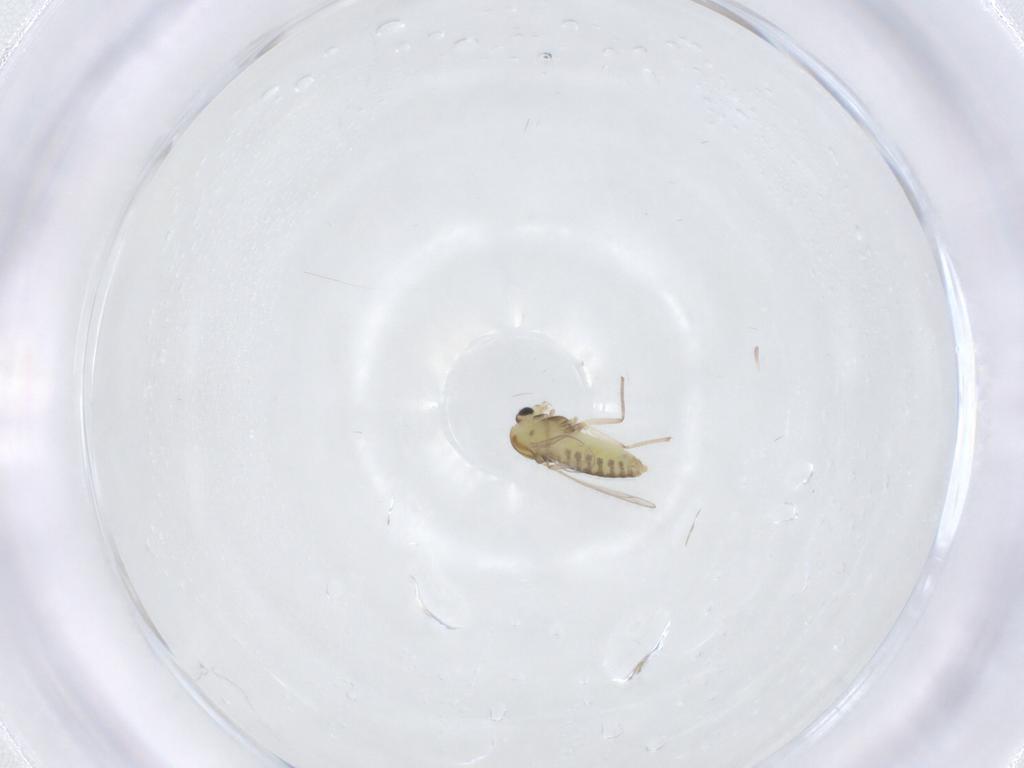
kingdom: Animalia
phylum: Arthropoda
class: Insecta
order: Diptera
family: Chironomidae
